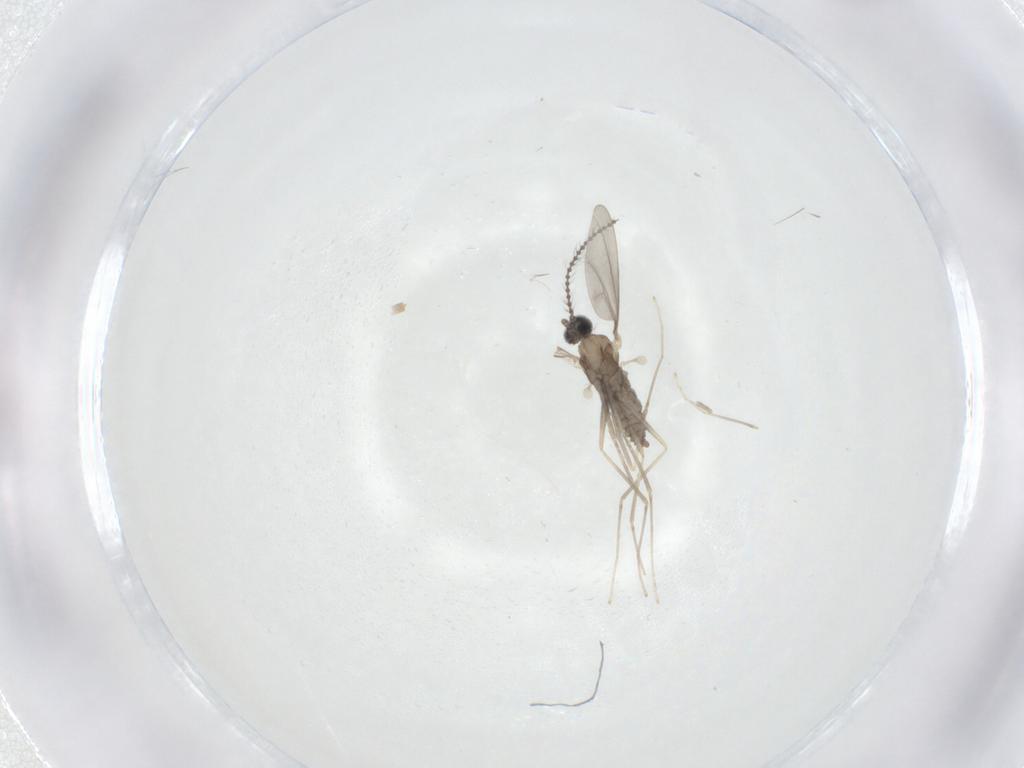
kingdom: Animalia
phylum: Arthropoda
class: Insecta
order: Diptera
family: Cecidomyiidae
